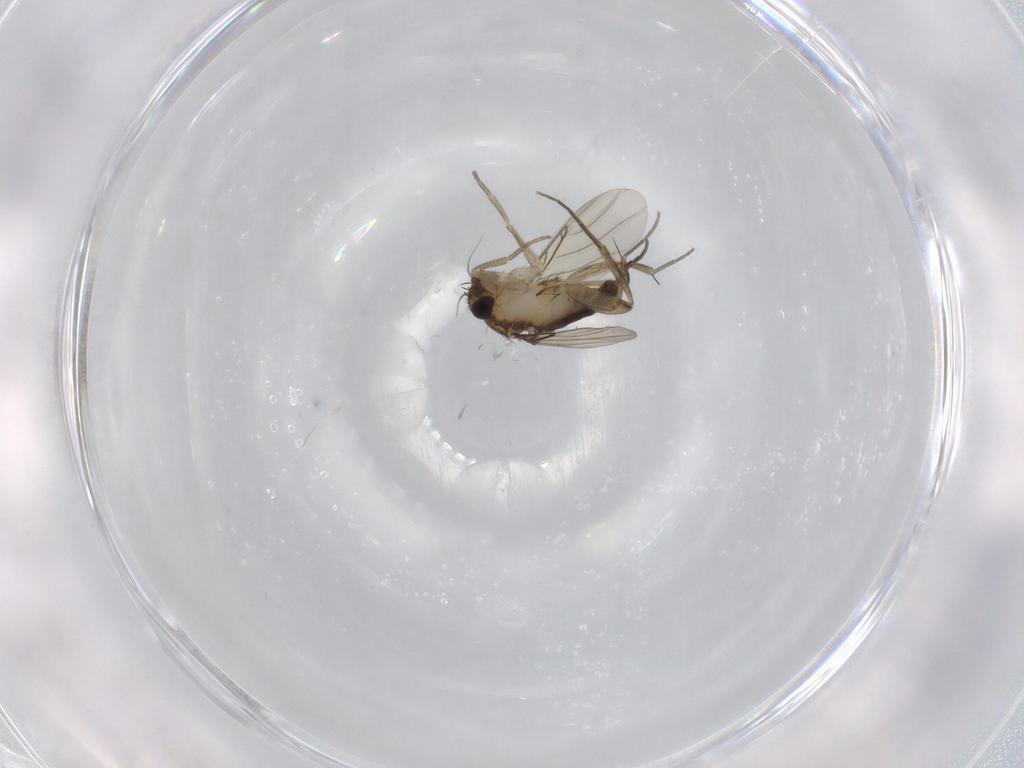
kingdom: Animalia
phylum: Arthropoda
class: Insecta
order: Diptera
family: Phoridae
